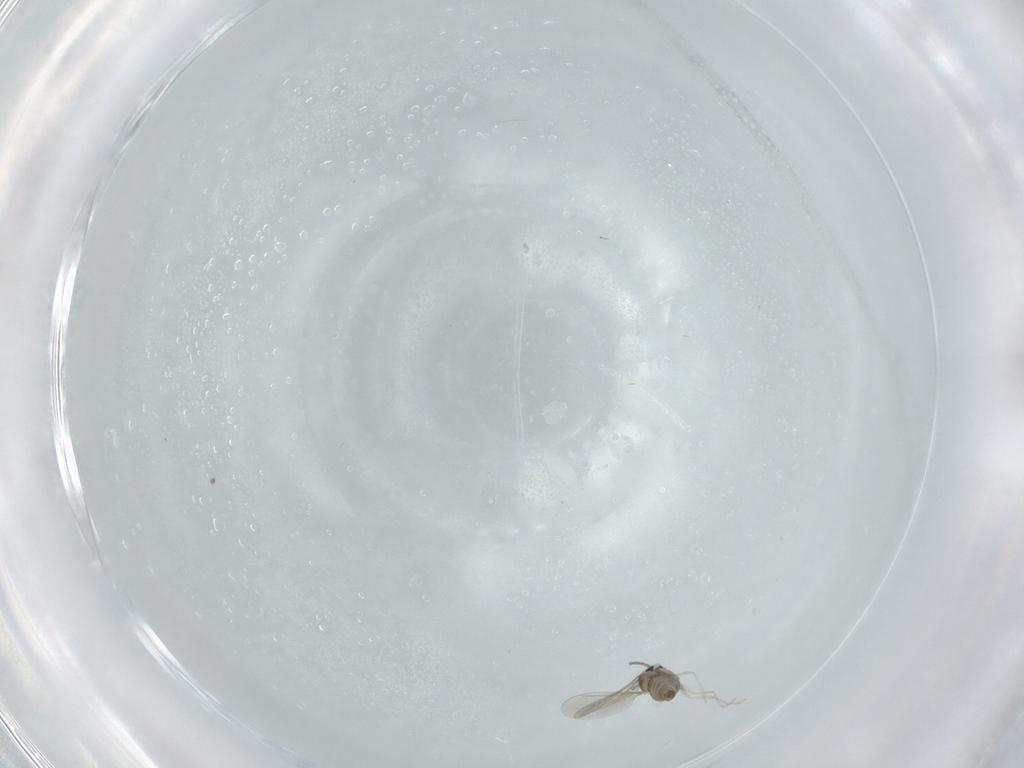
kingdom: Animalia
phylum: Arthropoda
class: Insecta
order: Diptera
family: Cecidomyiidae
